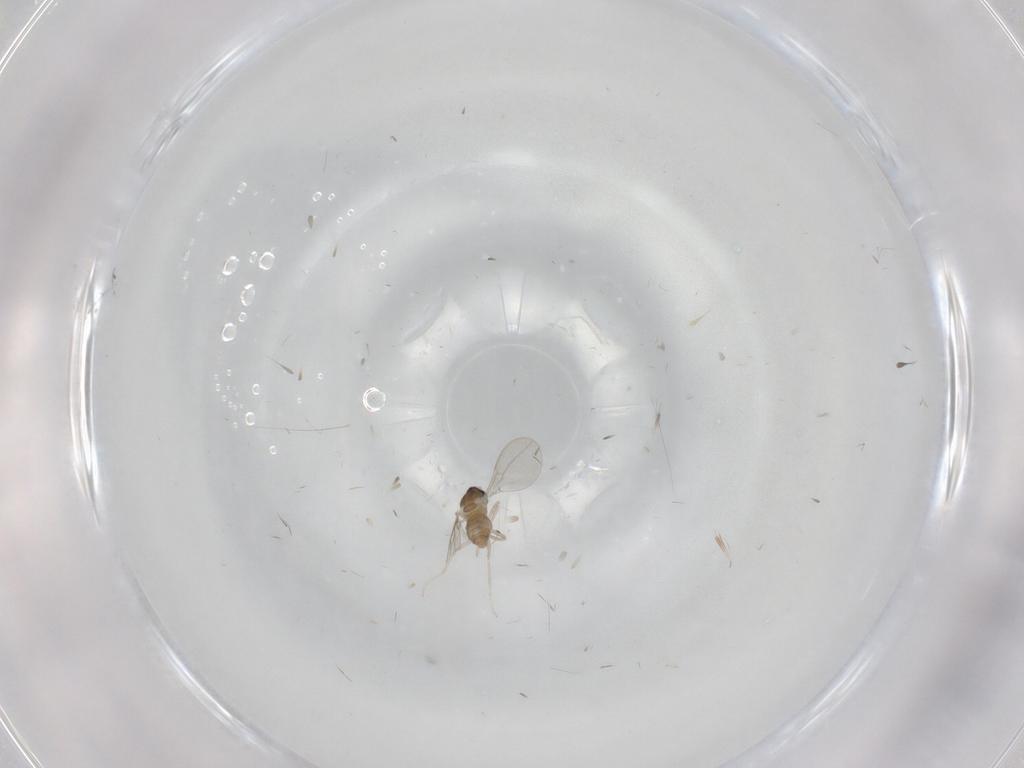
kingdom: Animalia
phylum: Arthropoda
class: Insecta
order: Diptera
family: Cecidomyiidae
